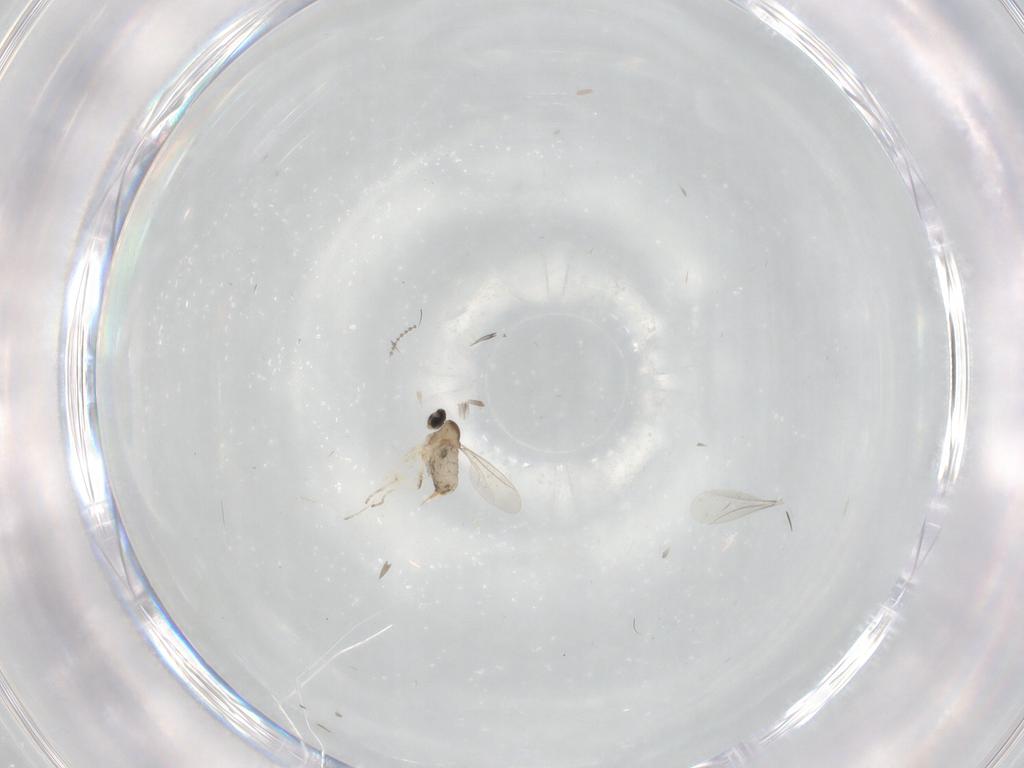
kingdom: Animalia
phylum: Arthropoda
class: Insecta
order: Diptera
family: Cecidomyiidae
